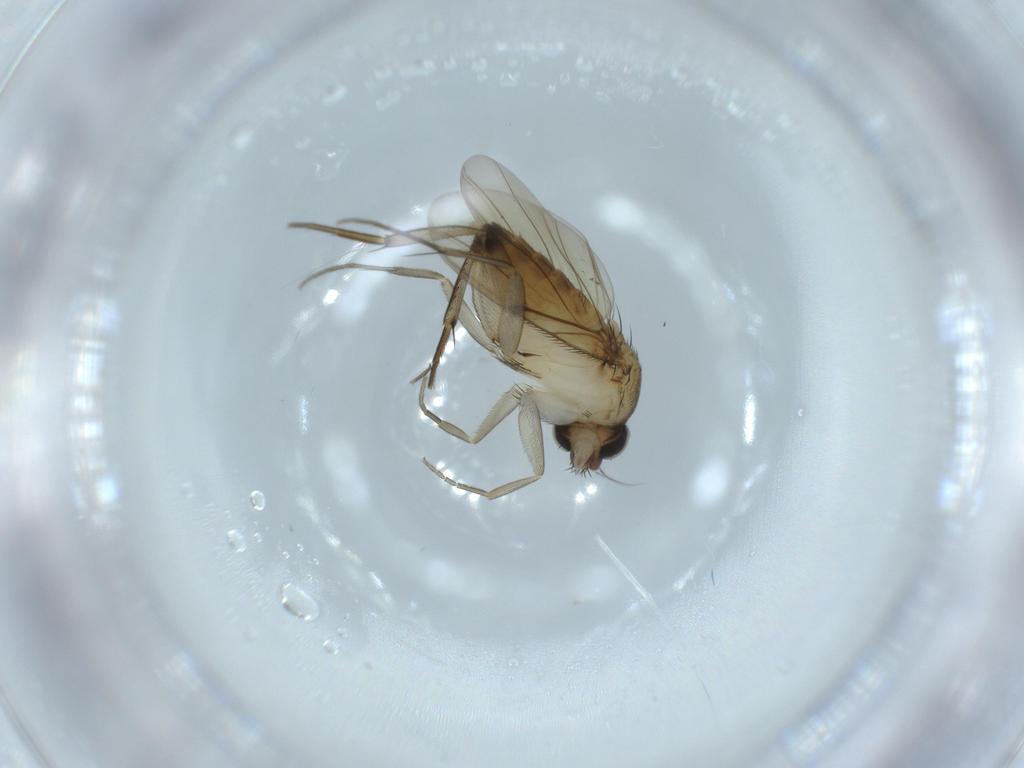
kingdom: Animalia
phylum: Arthropoda
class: Insecta
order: Diptera
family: Phoridae
